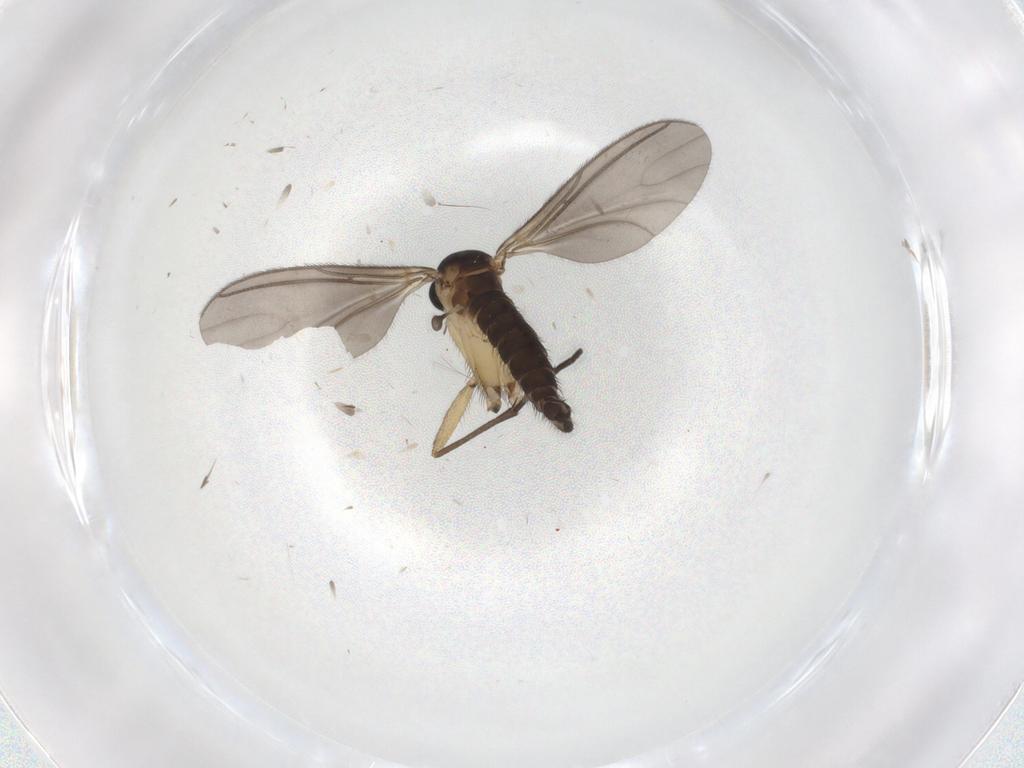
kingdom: Animalia
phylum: Arthropoda
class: Insecta
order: Diptera
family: Sciaridae
